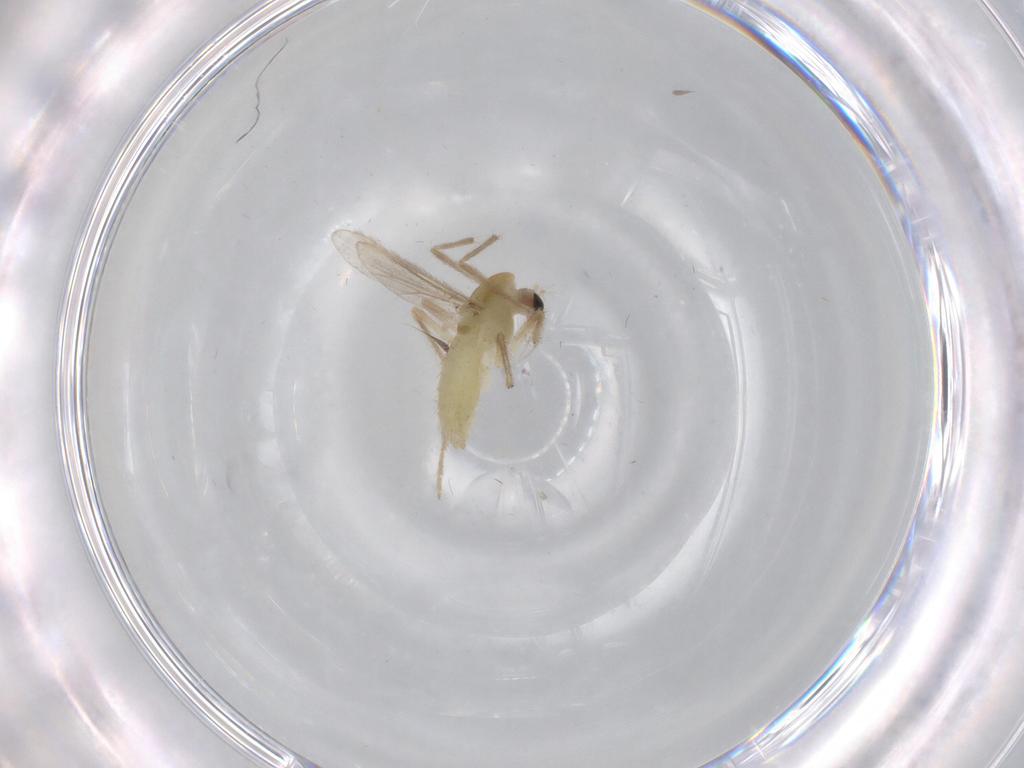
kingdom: Animalia
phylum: Arthropoda
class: Insecta
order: Diptera
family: Chironomidae
